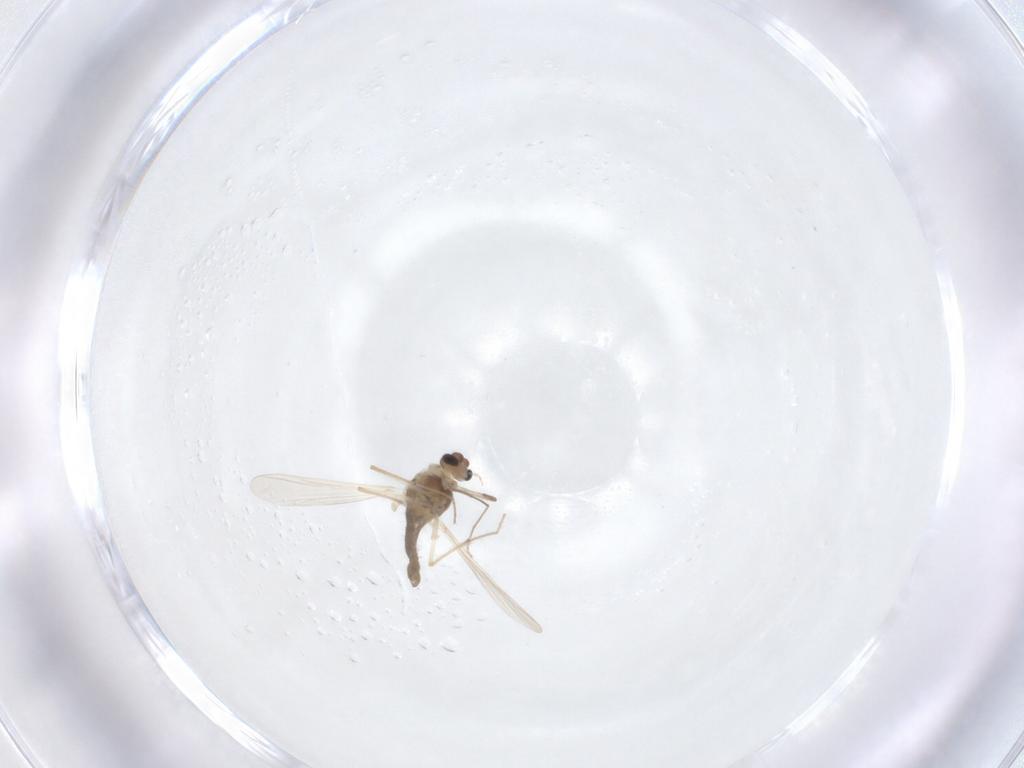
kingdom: Animalia
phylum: Arthropoda
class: Insecta
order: Diptera
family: Chironomidae
